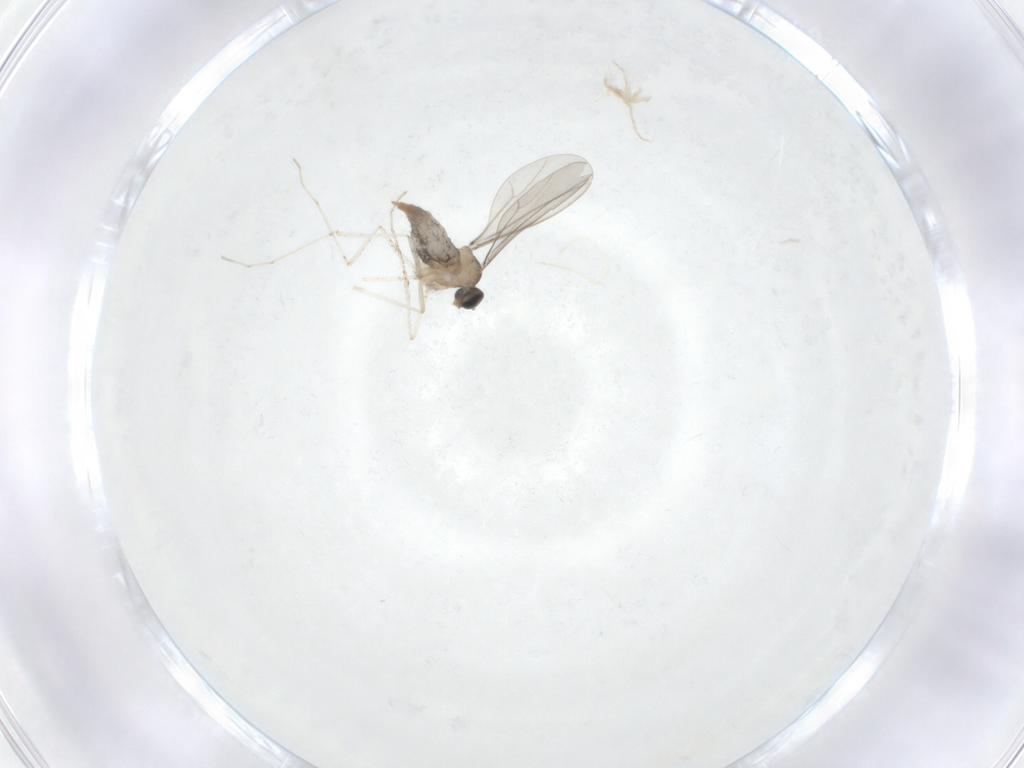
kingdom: Animalia
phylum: Arthropoda
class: Insecta
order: Diptera
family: Cecidomyiidae
